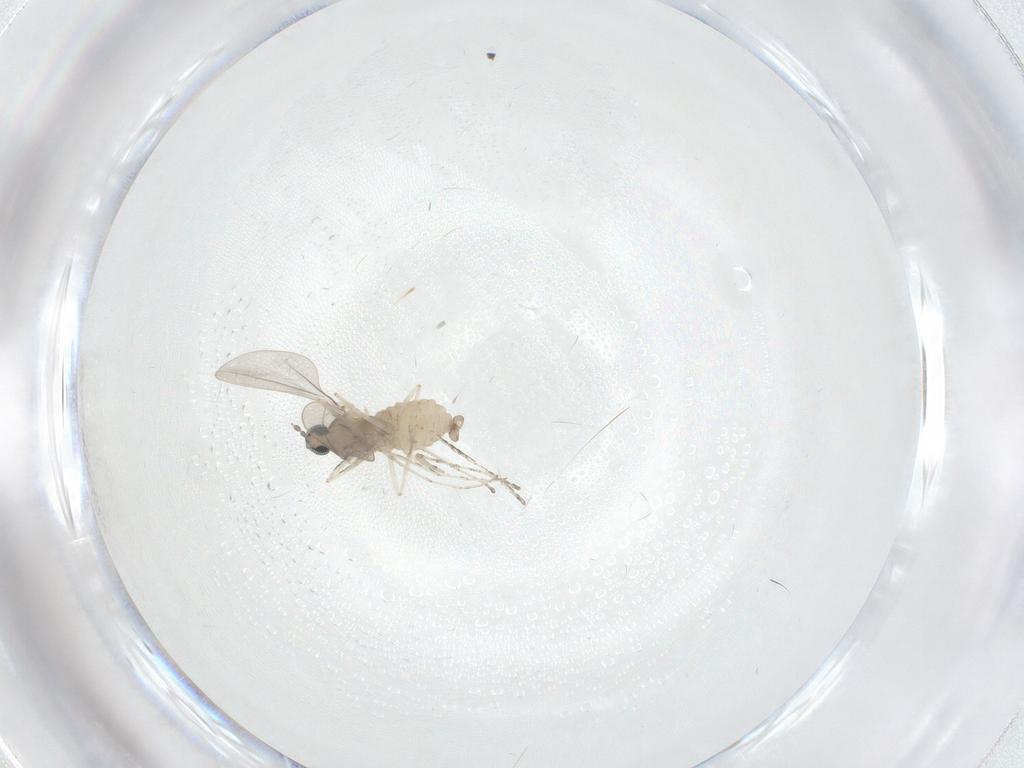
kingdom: Animalia
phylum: Arthropoda
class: Insecta
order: Diptera
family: Cecidomyiidae
